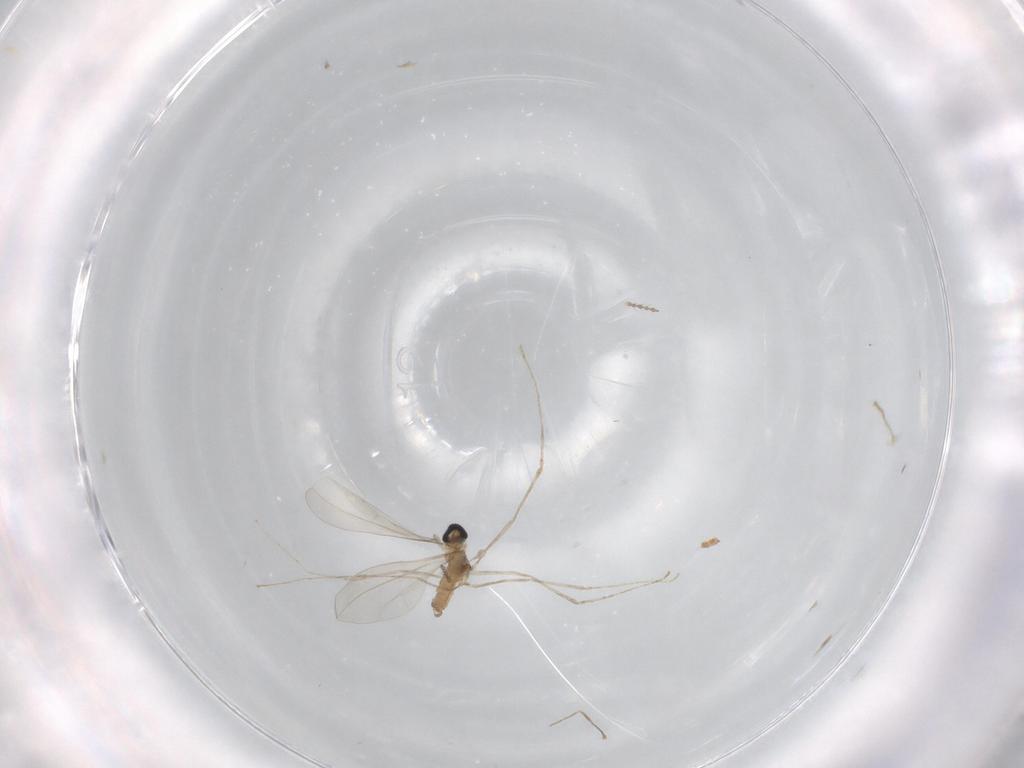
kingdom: Animalia
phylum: Arthropoda
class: Insecta
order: Diptera
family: Cecidomyiidae
